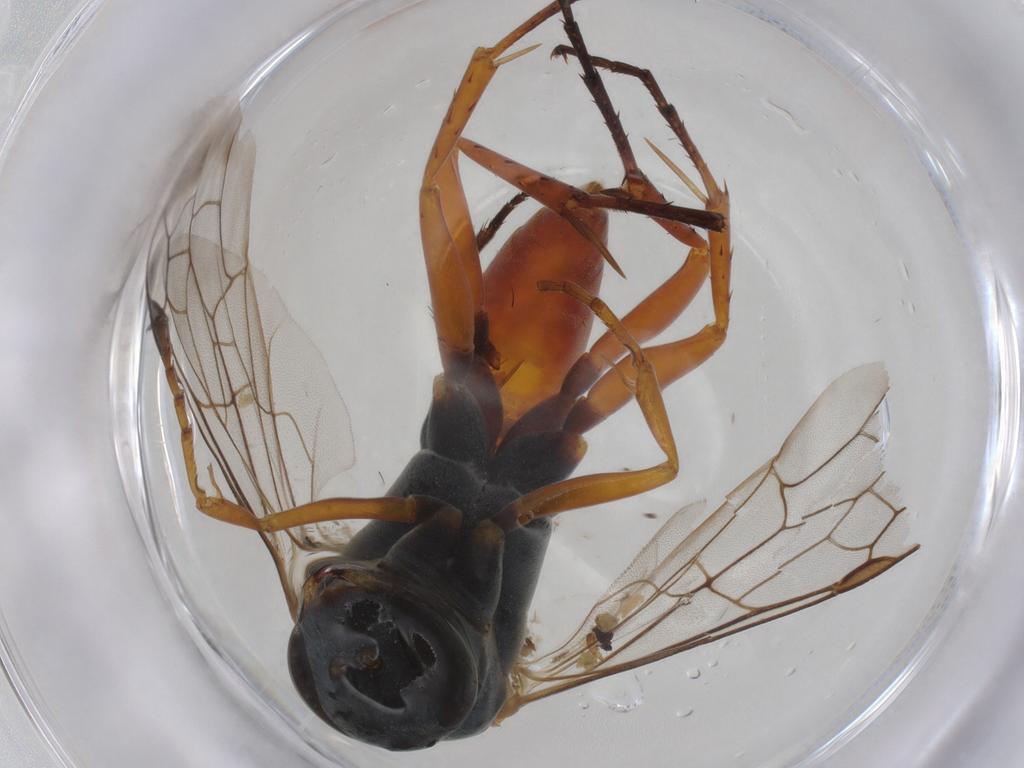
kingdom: Animalia
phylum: Arthropoda
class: Insecta
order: Hymenoptera
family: Pompilidae
